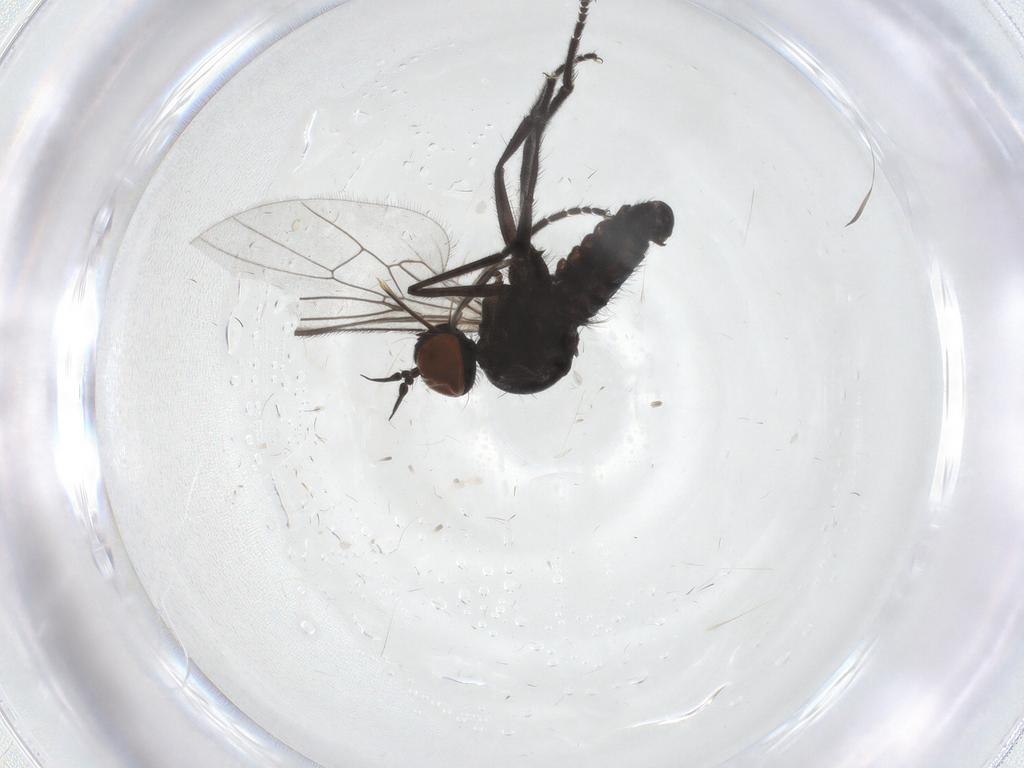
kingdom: Animalia
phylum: Arthropoda
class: Insecta
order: Diptera
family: Empididae
